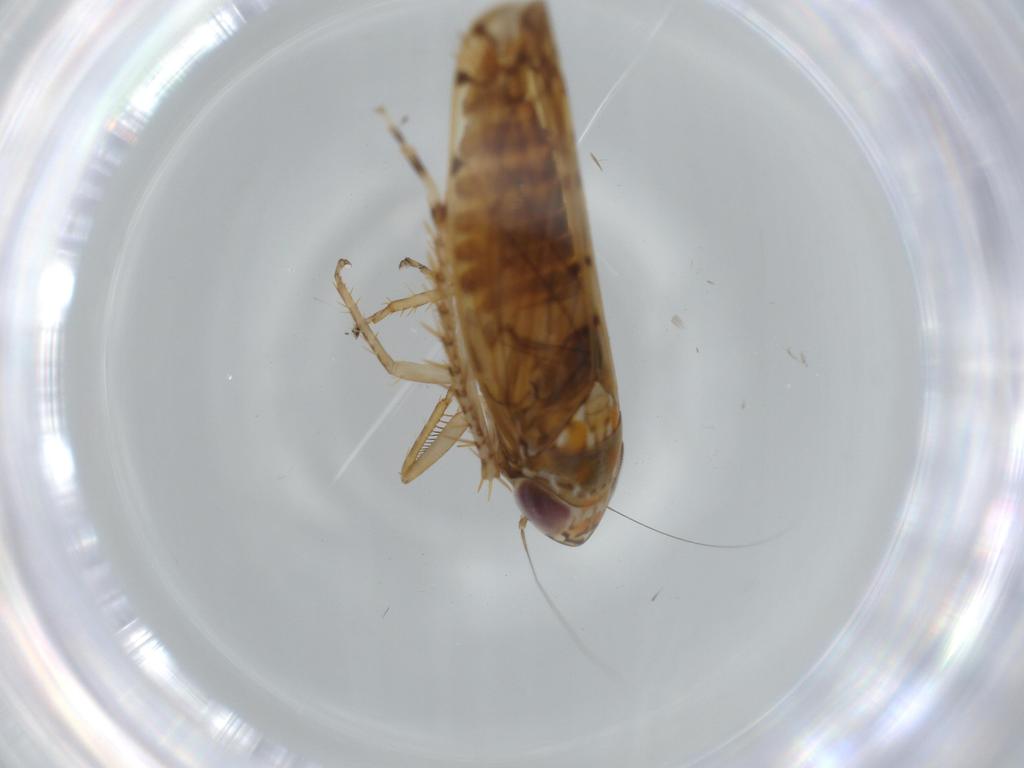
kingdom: Animalia
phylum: Arthropoda
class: Insecta
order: Hemiptera
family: Cicadellidae
